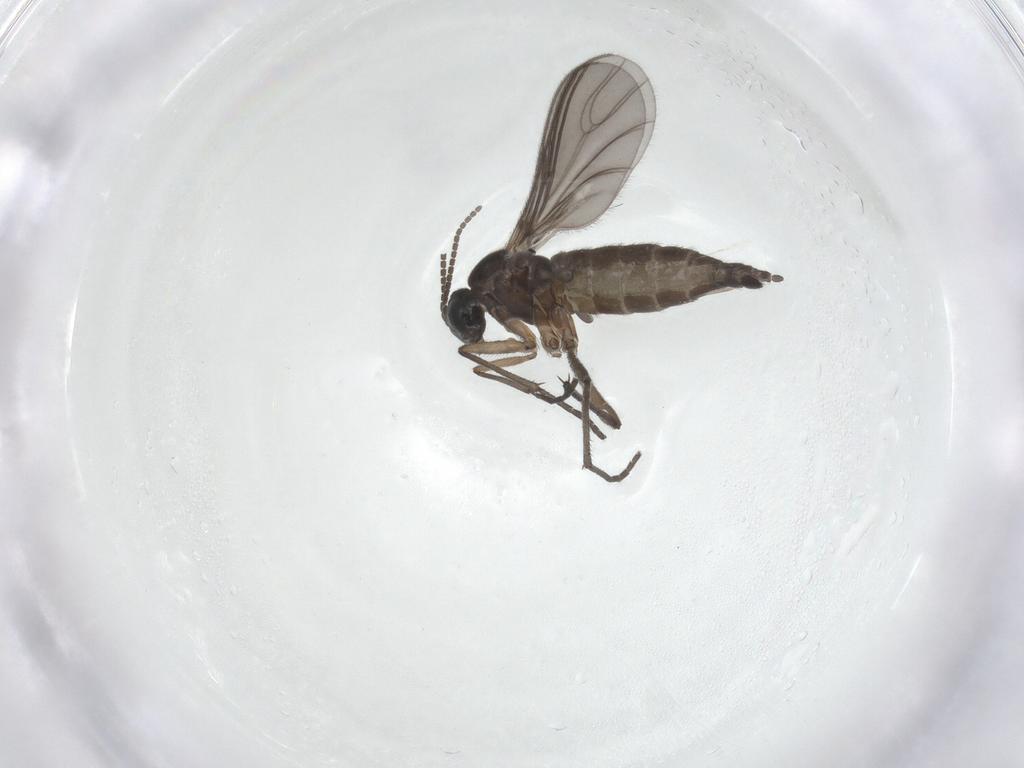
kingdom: Animalia
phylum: Arthropoda
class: Insecta
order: Diptera
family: Sciaridae
